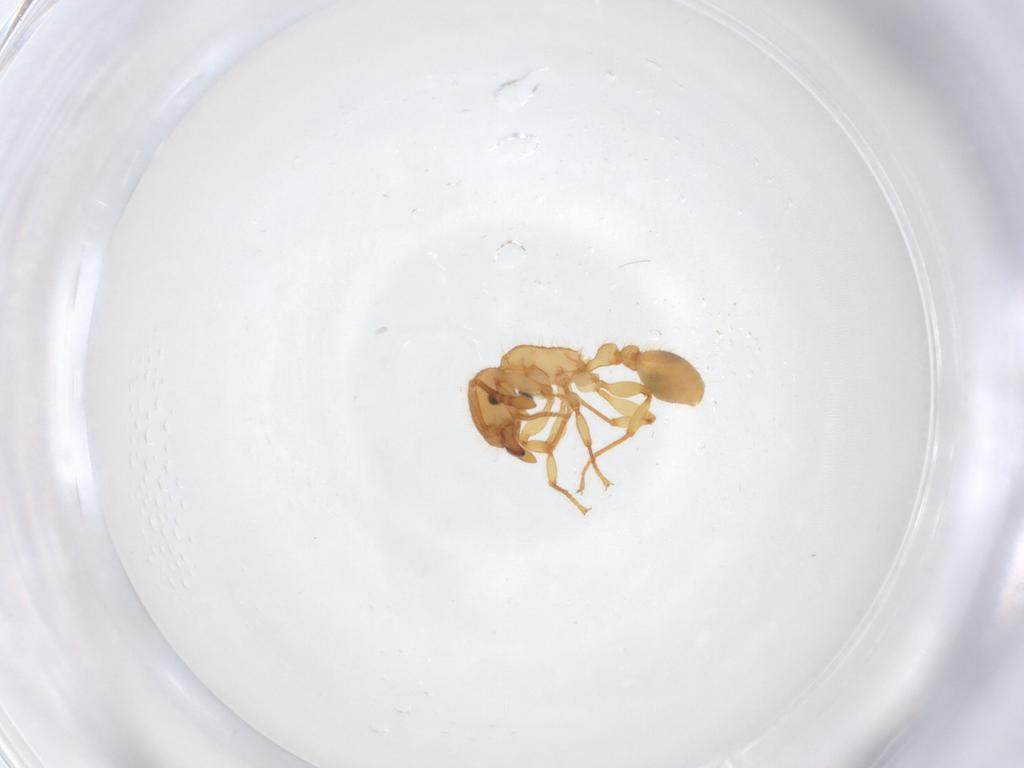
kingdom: Animalia
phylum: Arthropoda
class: Insecta
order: Hymenoptera
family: Formicidae
